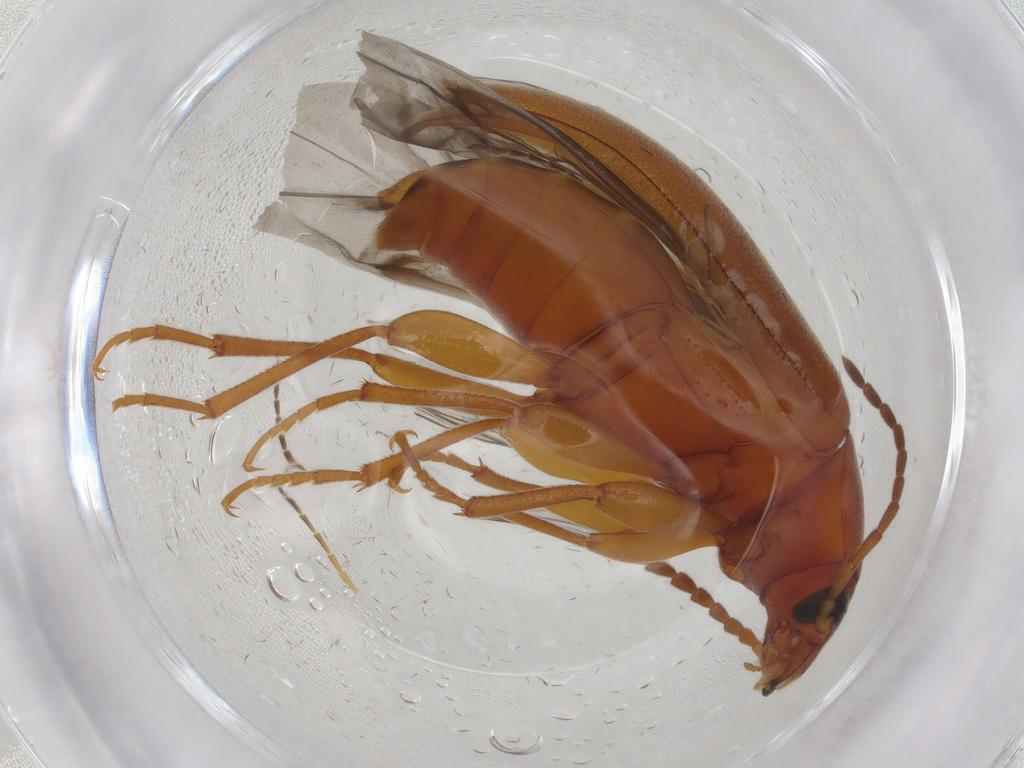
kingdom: Animalia
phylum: Arthropoda
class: Insecta
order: Coleoptera
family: Tenebrionidae
